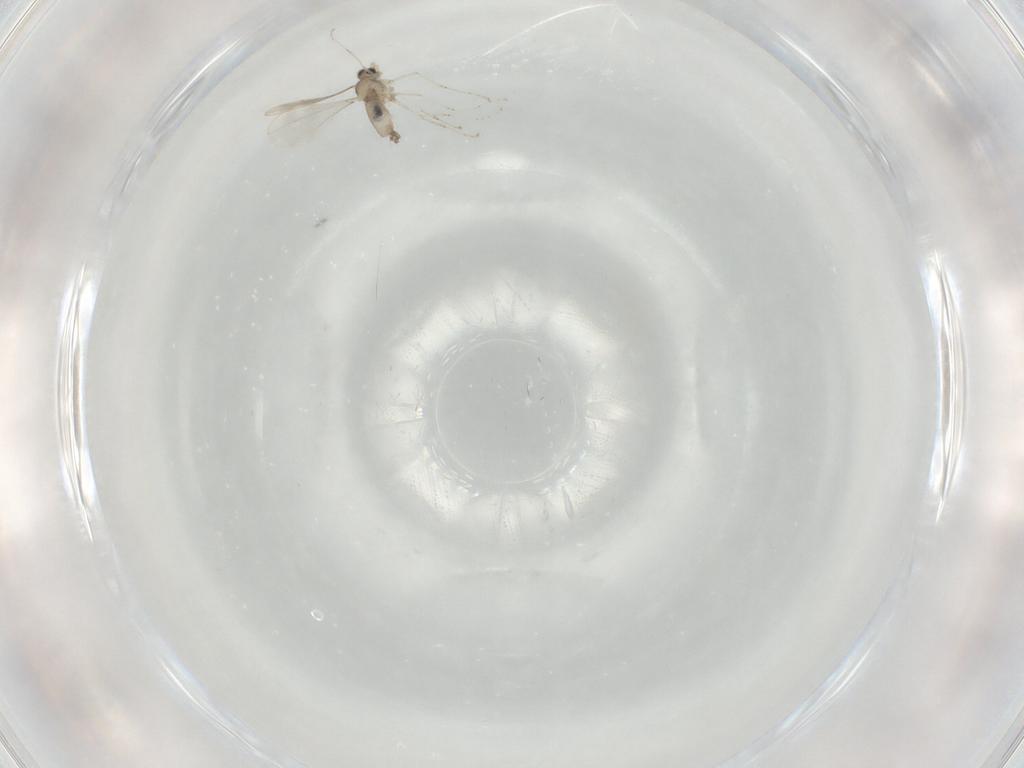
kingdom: Animalia
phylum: Arthropoda
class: Insecta
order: Diptera
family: Cecidomyiidae
